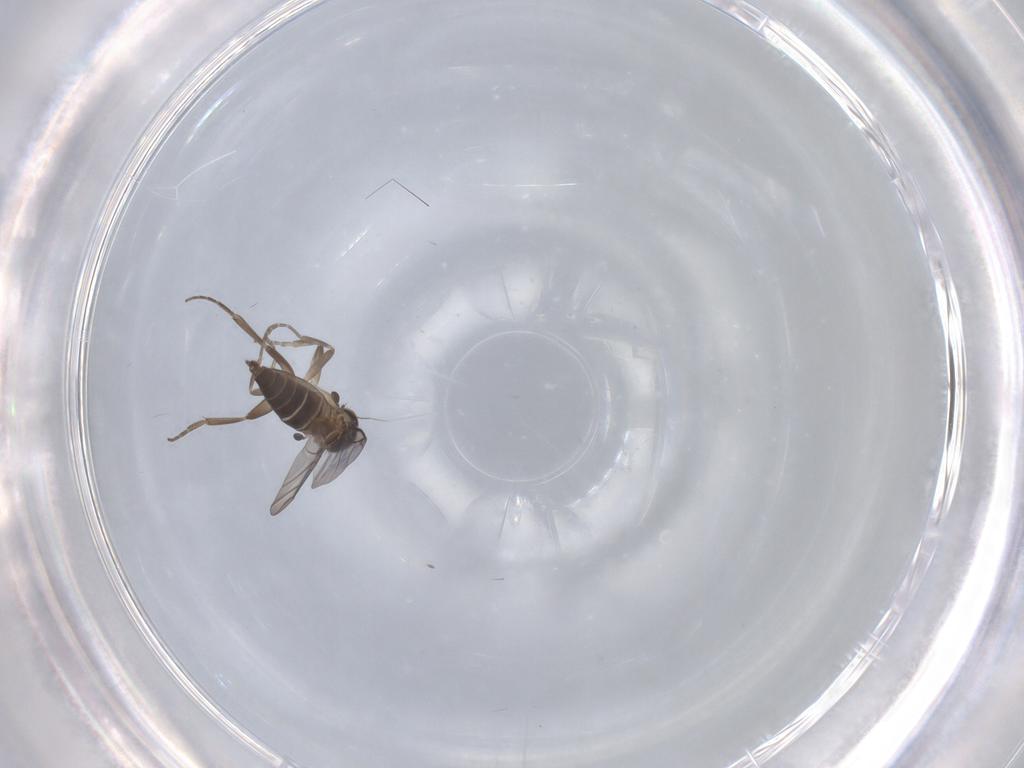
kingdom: Animalia
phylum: Arthropoda
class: Insecta
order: Diptera
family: Phoridae
